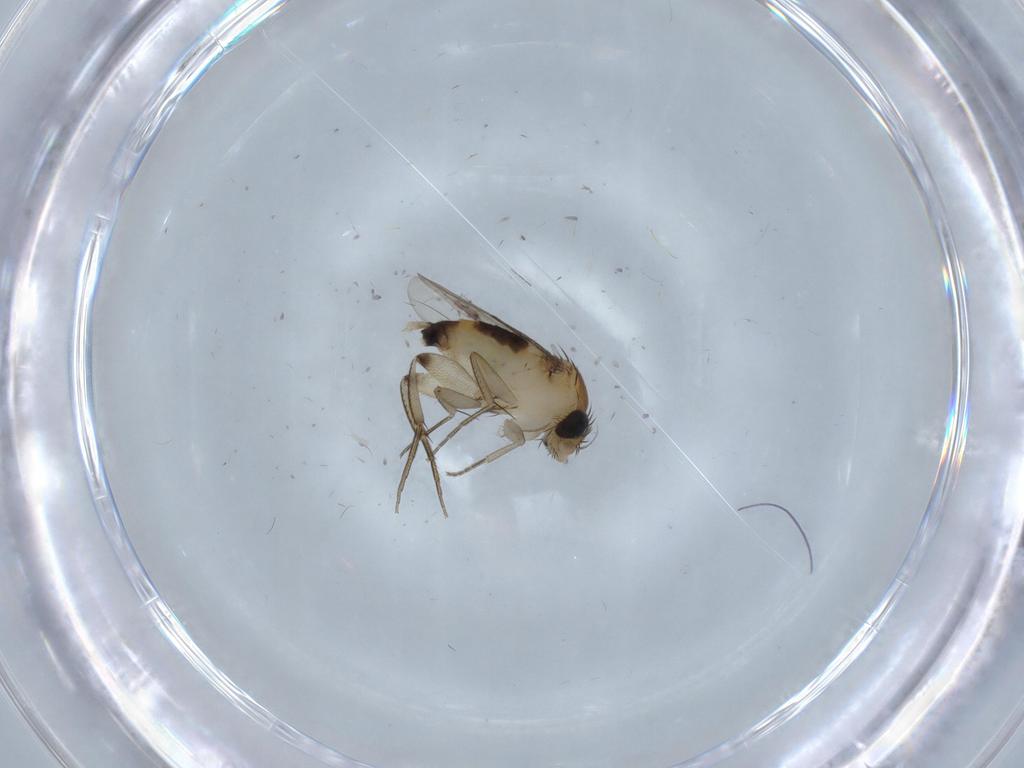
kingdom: Animalia
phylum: Arthropoda
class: Insecta
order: Diptera
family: Phoridae
